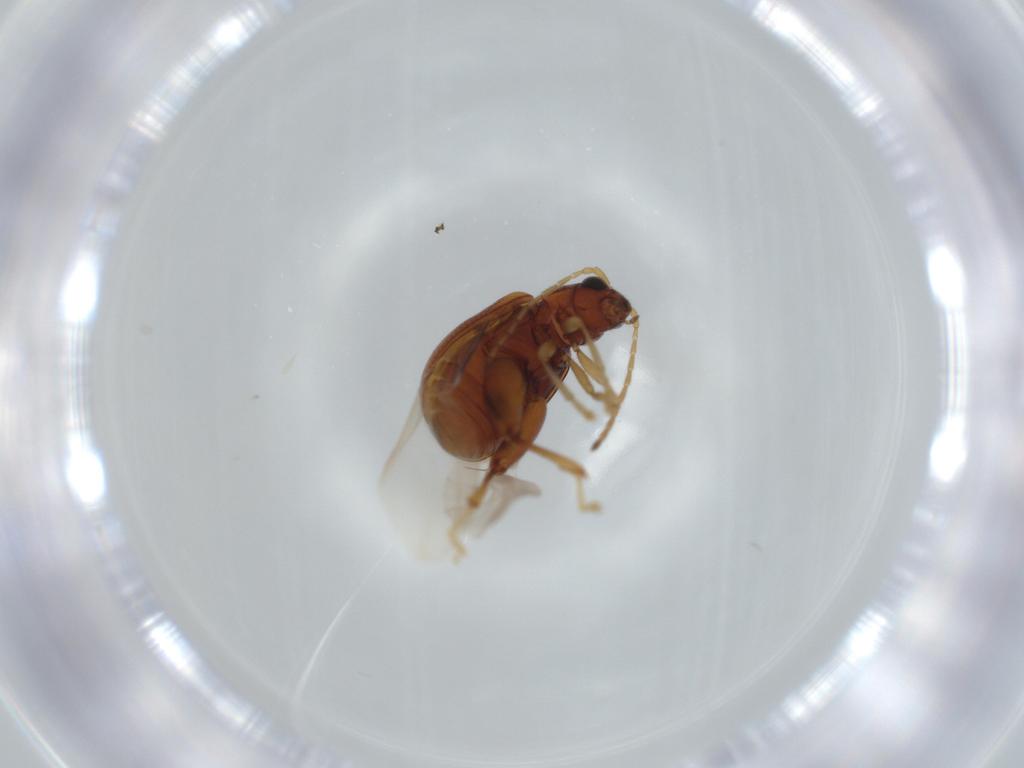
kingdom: Animalia
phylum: Arthropoda
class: Insecta
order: Coleoptera
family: Chrysomelidae
